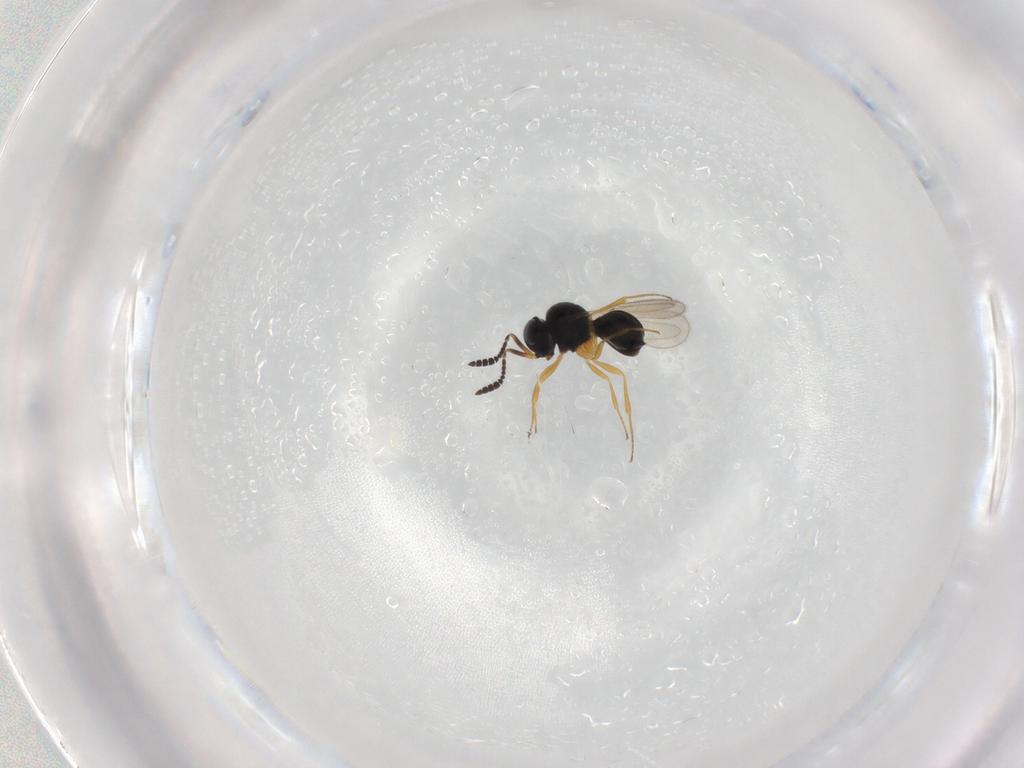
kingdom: Animalia
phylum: Arthropoda
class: Insecta
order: Hymenoptera
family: Scelionidae
